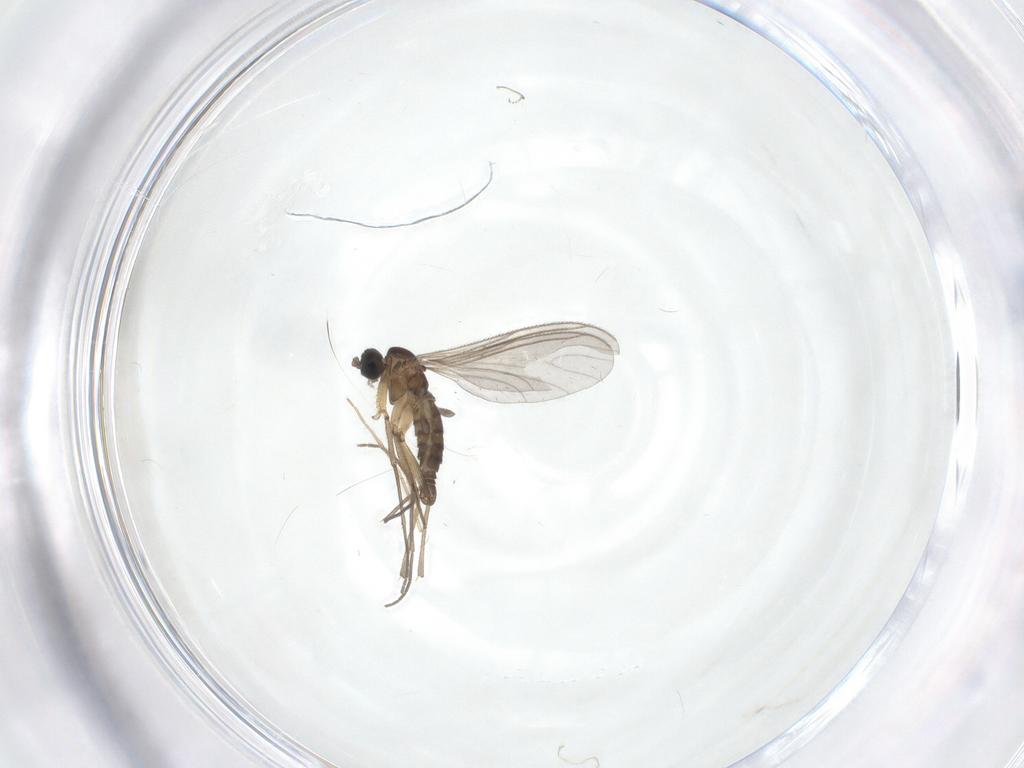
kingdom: Animalia
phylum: Arthropoda
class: Insecta
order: Diptera
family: Sciaridae
